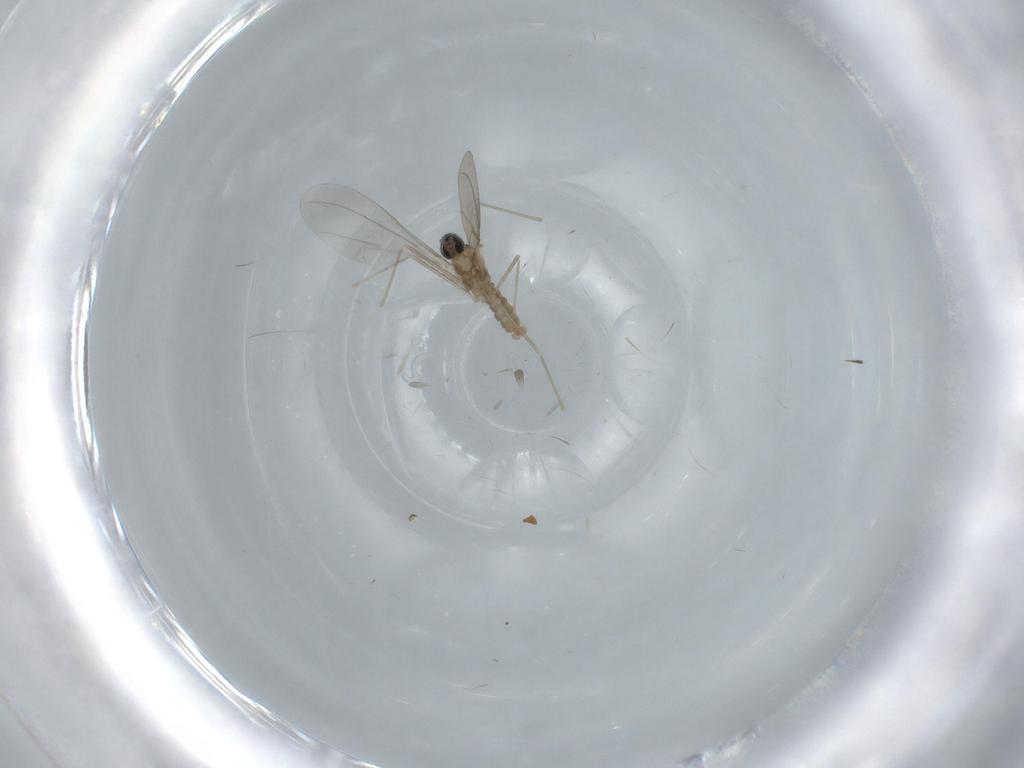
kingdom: Animalia
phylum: Arthropoda
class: Insecta
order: Diptera
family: Cecidomyiidae
